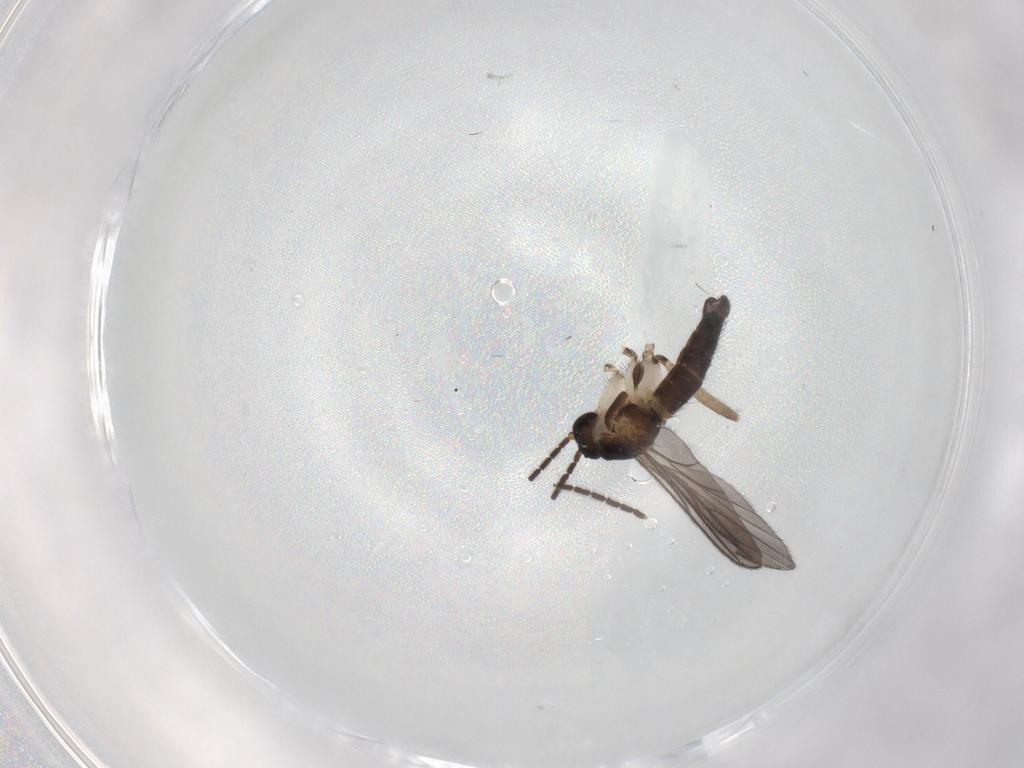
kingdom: Animalia
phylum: Arthropoda
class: Insecta
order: Diptera
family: Sciaridae
